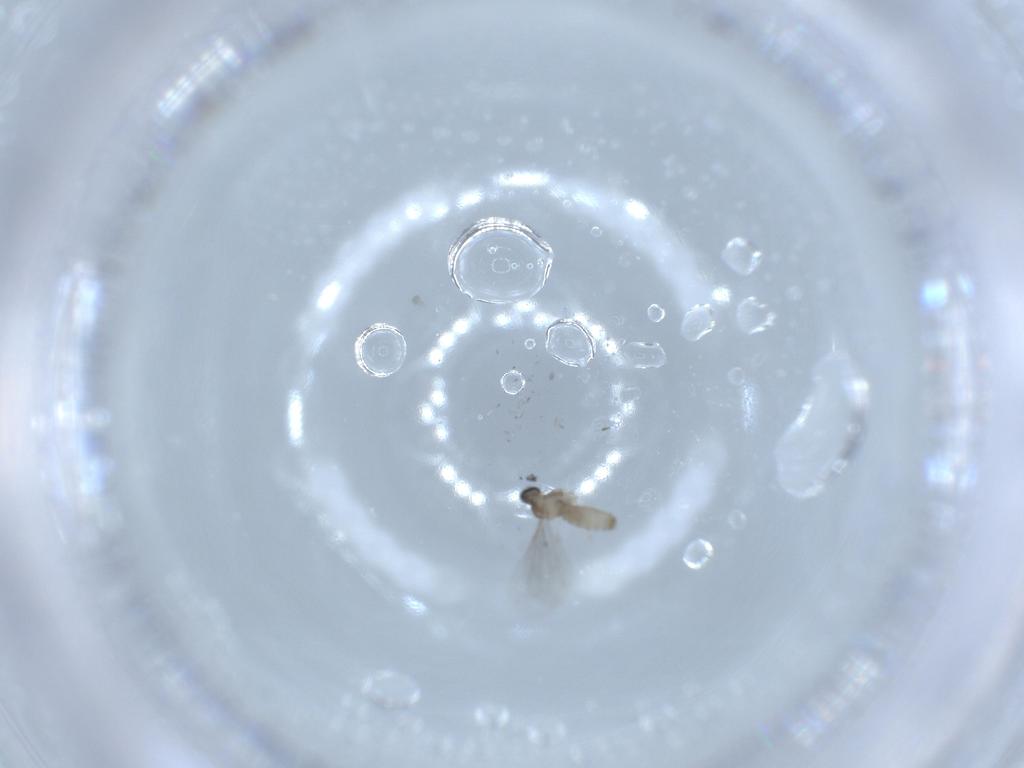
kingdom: Animalia
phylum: Arthropoda
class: Insecta
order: Diptera
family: Cecidomyiidae
